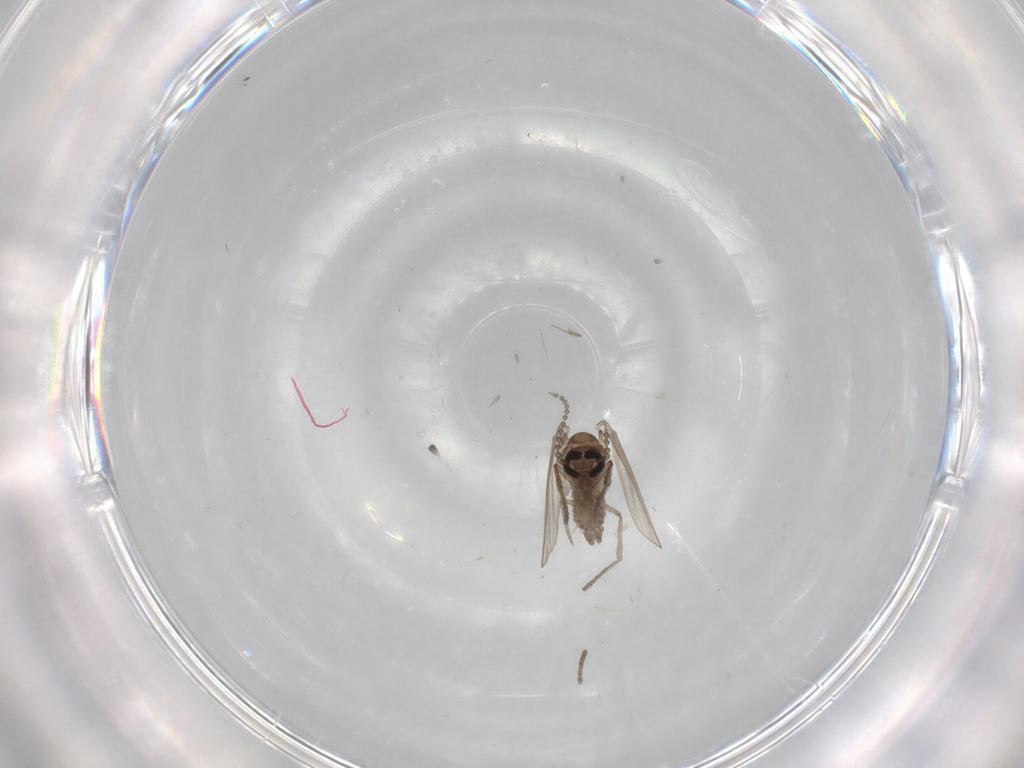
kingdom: Animalia
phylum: Arthropoda
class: Insecta
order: Diptera
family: Psychodidae
